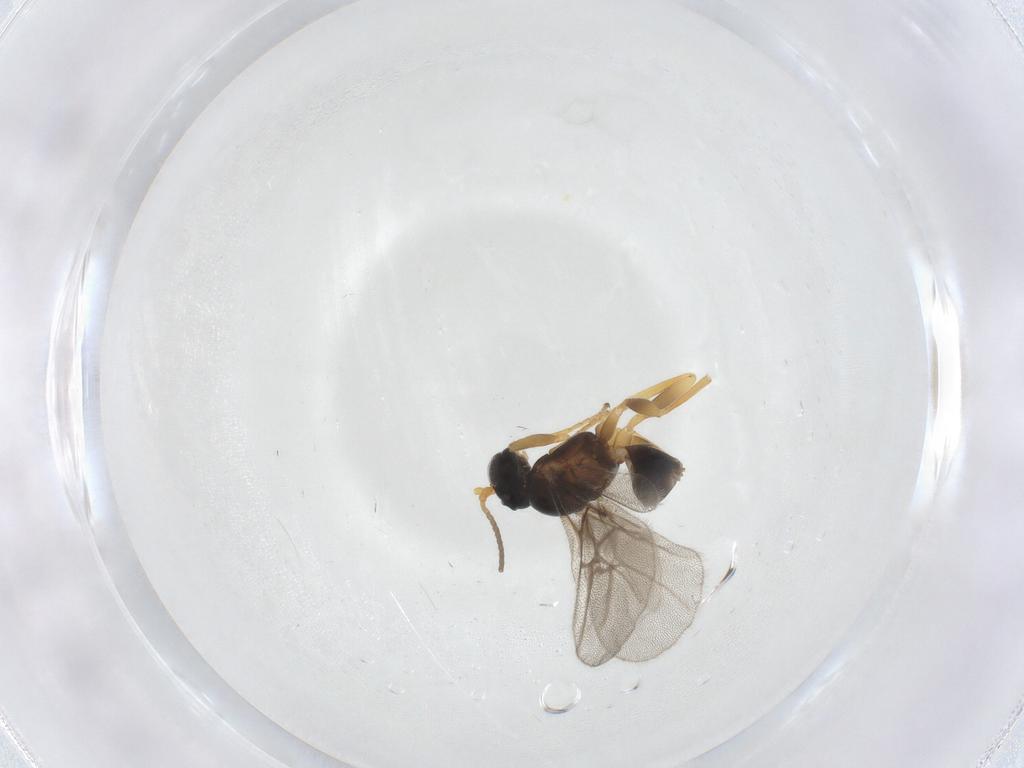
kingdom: Animalia
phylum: Arthropoda
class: Insecta
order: Hymenoptera
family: Cynipidae
